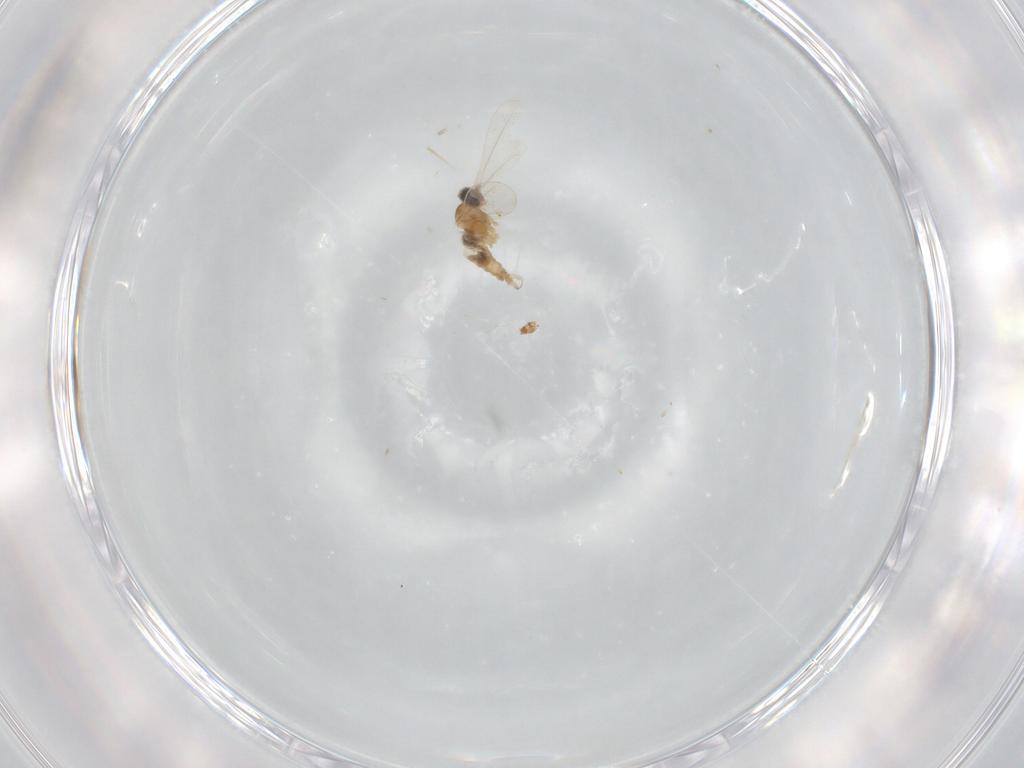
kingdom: Animalia
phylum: Arthropoda
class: Insecta
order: Diptera
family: Cecidomyiidae
